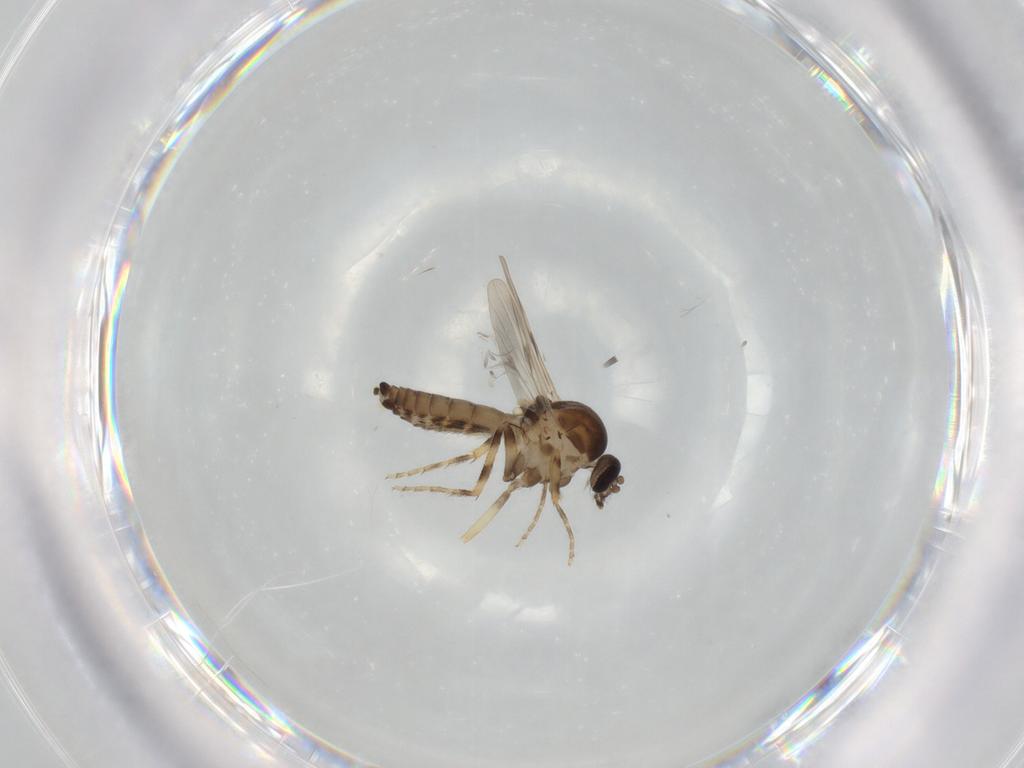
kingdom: Animalia
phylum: Arthropoda
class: Insecta
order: Diptera
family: Ceratopogonidae
